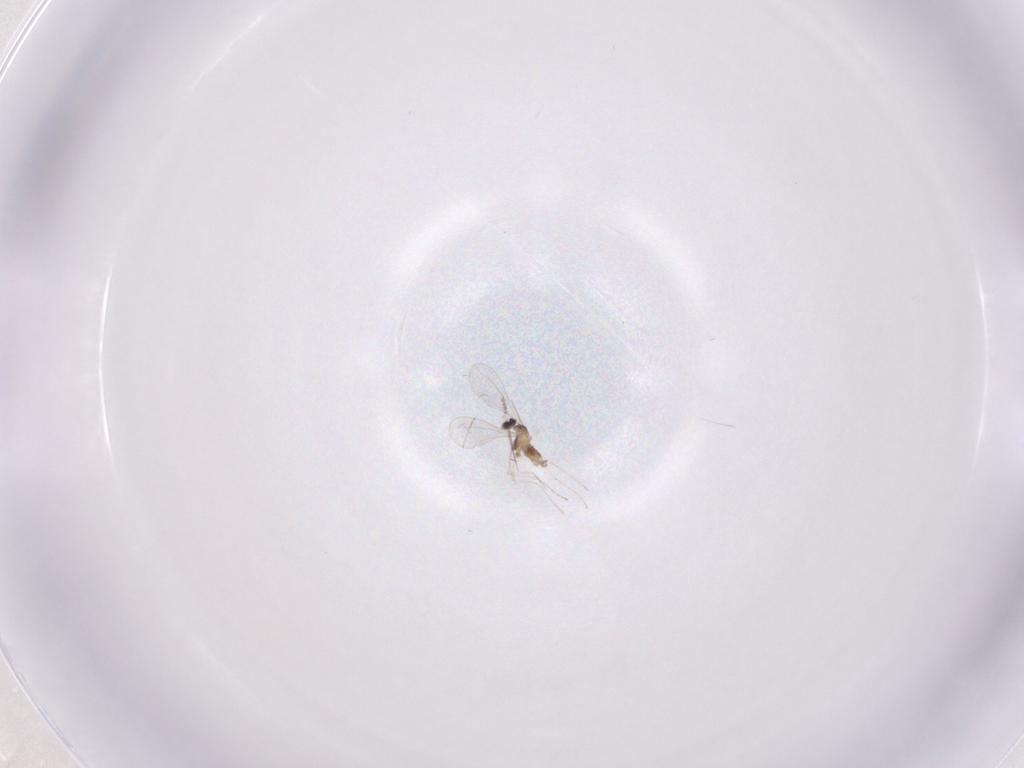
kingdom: Animalia
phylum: Arthropoda
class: Insecta
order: Diptera
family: Cecidomyiidae
